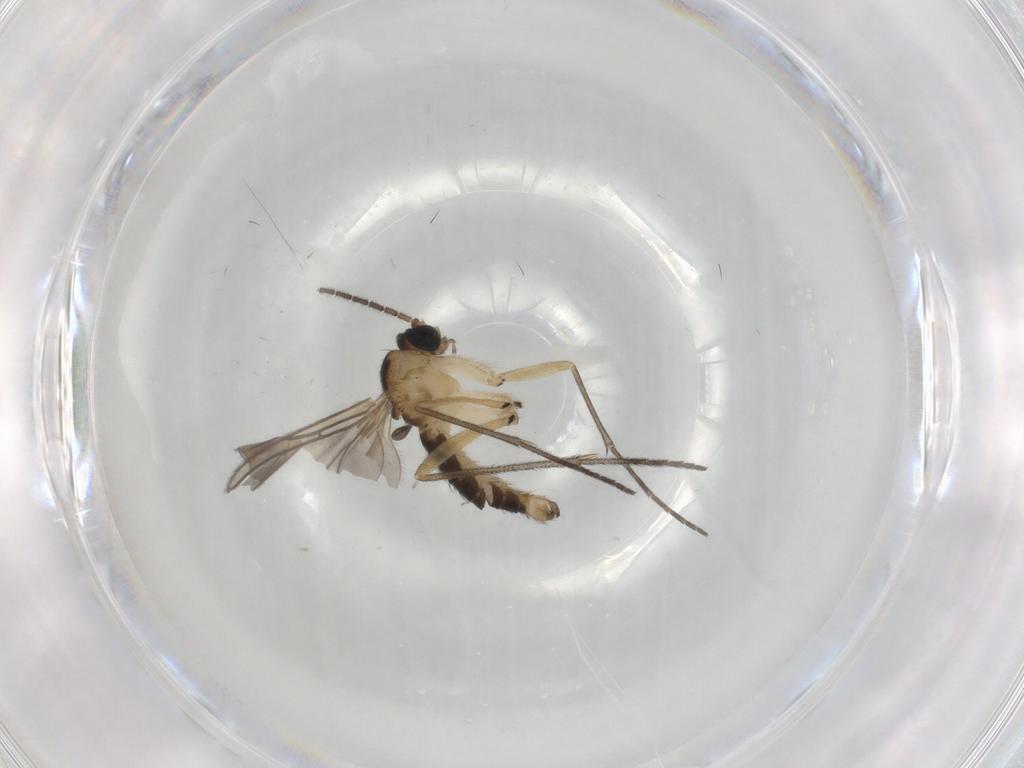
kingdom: Animalia
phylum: Arthropoda
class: Insecta
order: Diptera
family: Sciaridae
